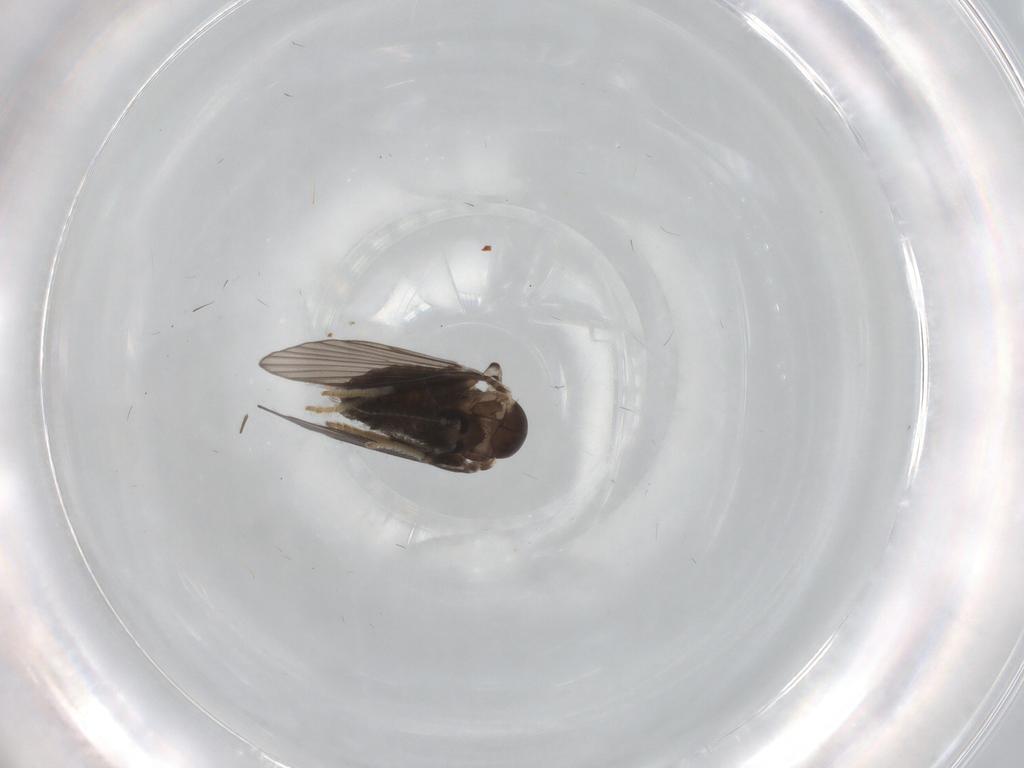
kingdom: Animalia
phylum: Arthropoda
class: Insecta
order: Diptera
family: Psychodidae
